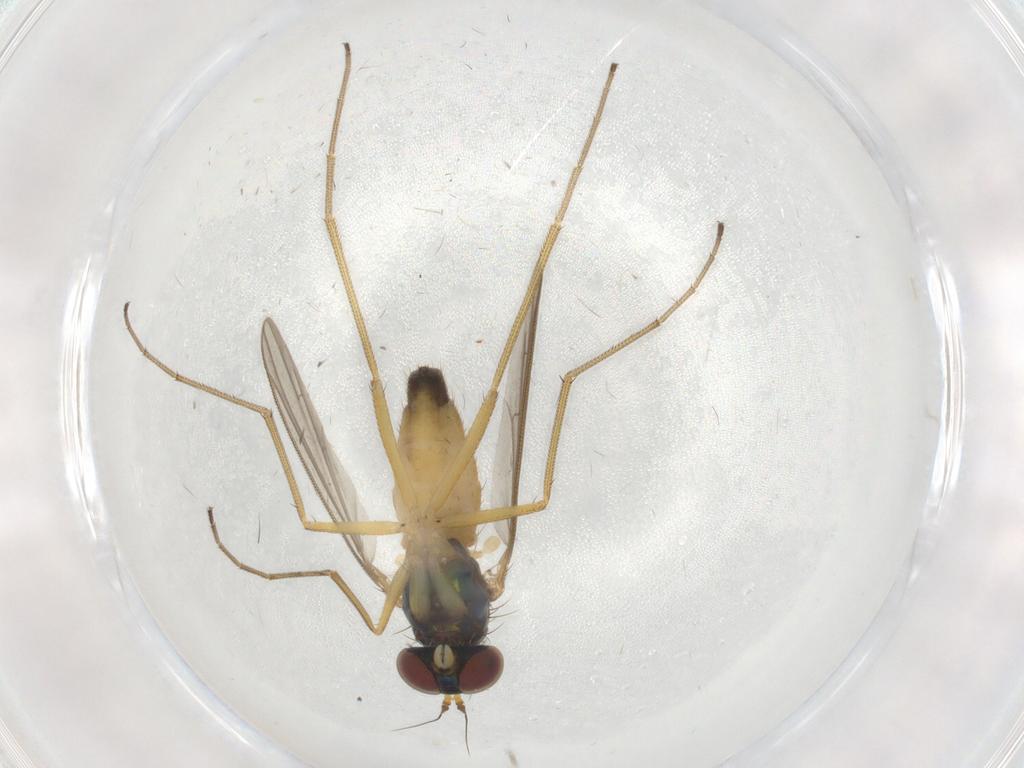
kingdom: Animalia
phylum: Arthropoda
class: Insecta
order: Diptera
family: Dolichopodidae
